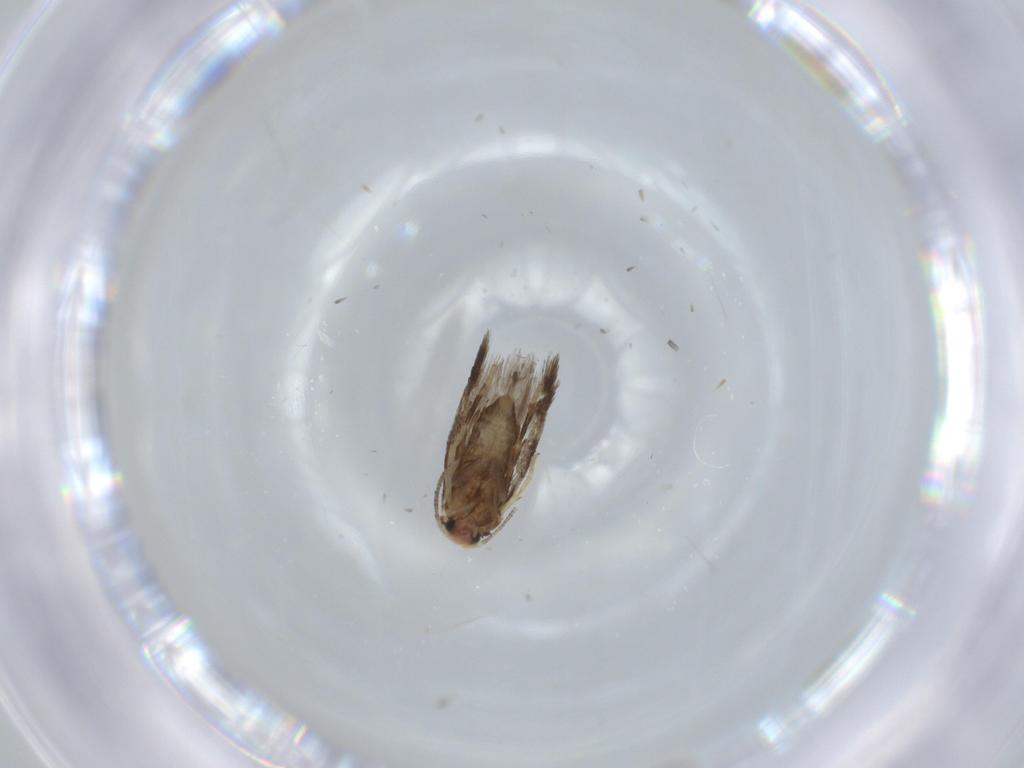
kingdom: Animalia
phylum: Arthropoda
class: Insecta
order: Lepidoptera
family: Nepticulidae
